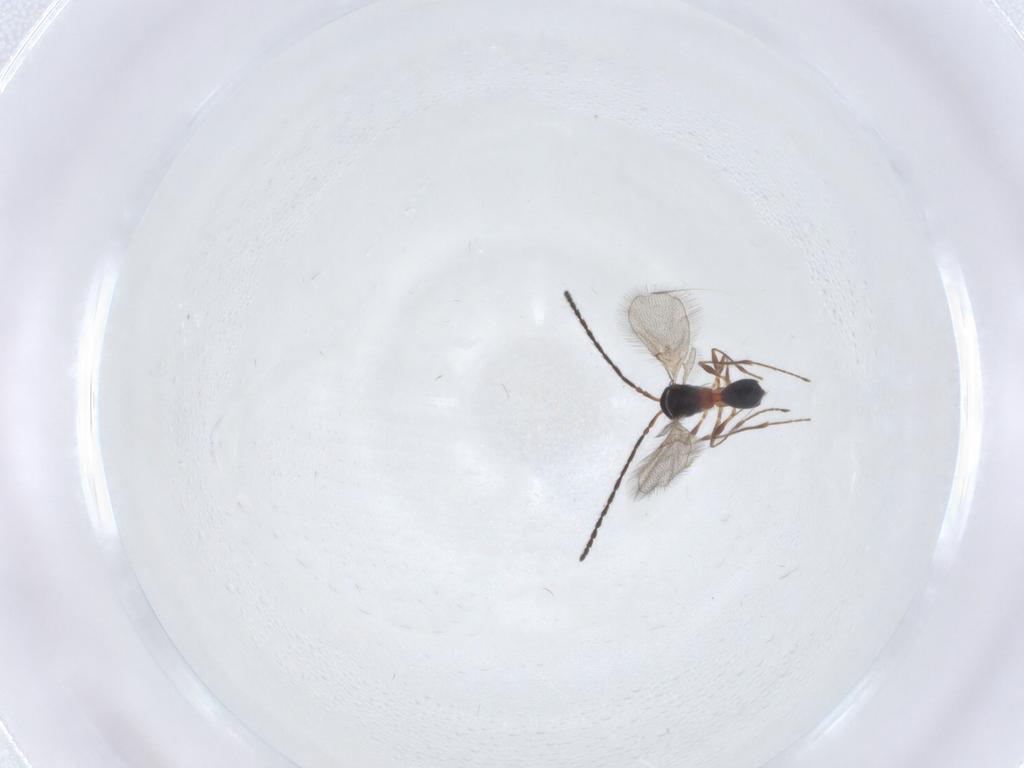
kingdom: Animalia
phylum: Arthropoda
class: Insecta
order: Hymenoptera
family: Diapriidae
